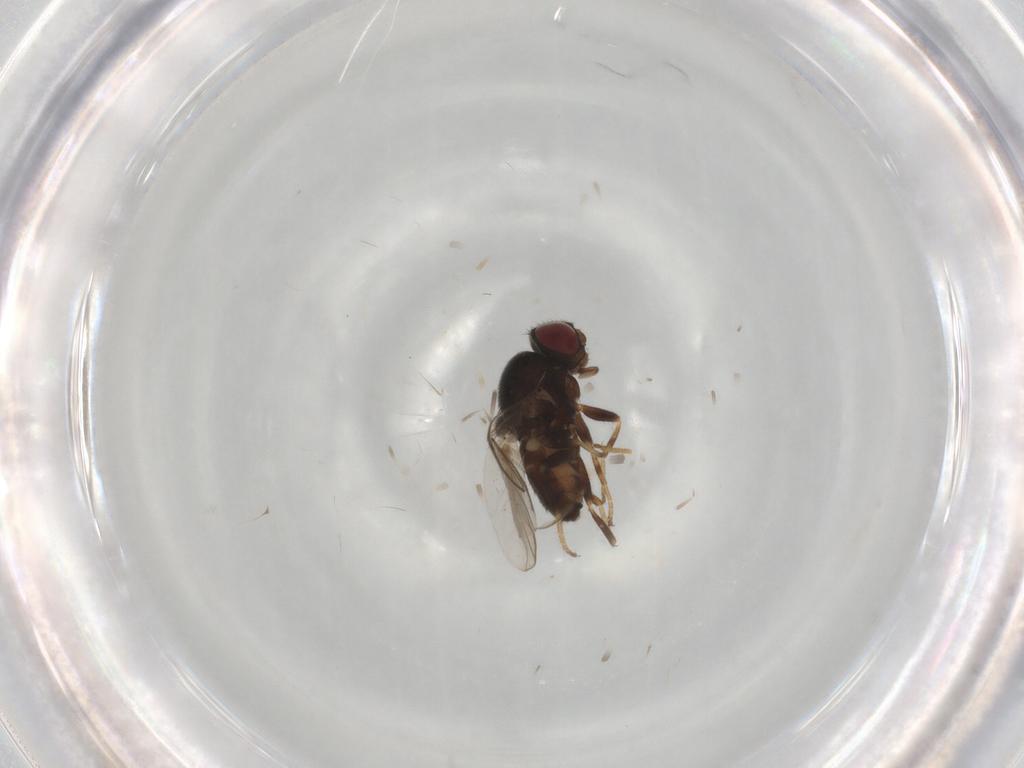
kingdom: Animalia
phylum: Arthropoda
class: Insecta
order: Diptera
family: Chloropidae
